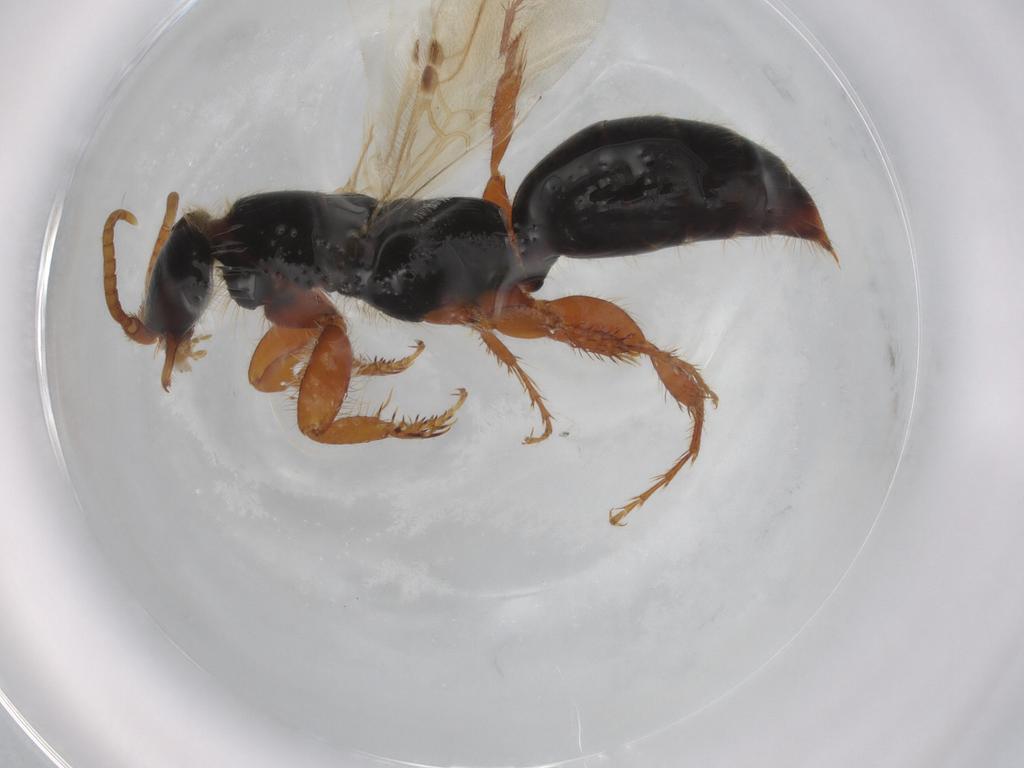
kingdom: Animalia
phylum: Arthropoda
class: Insecta
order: Hymenoptera
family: Bethylidae
